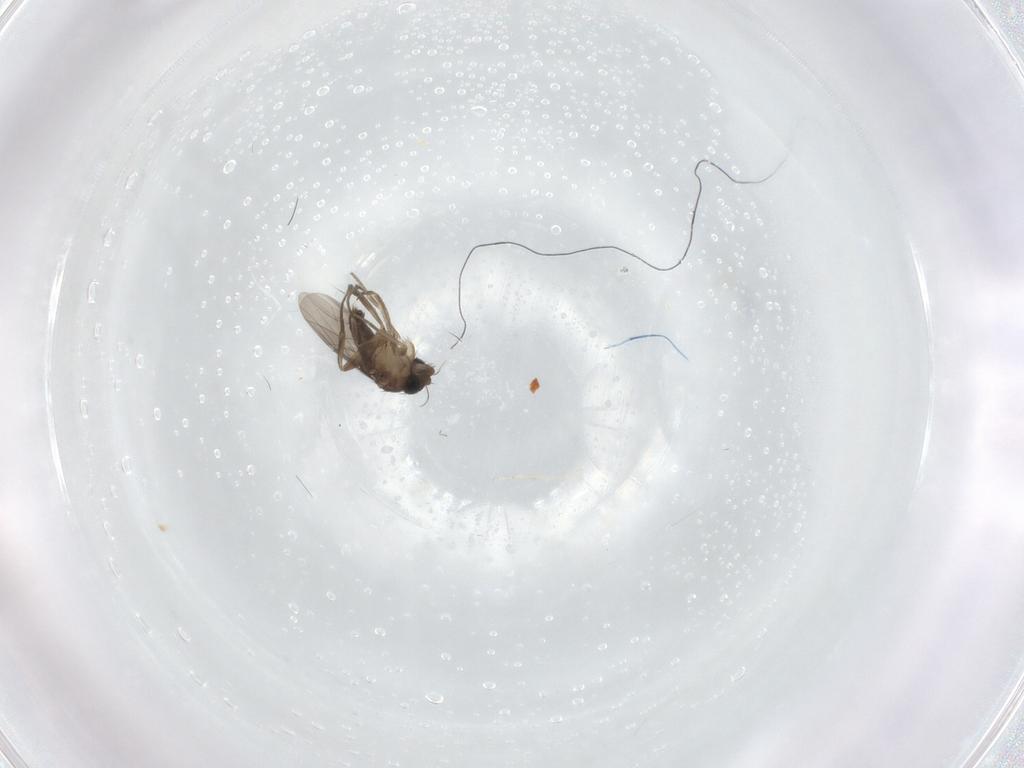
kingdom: Animalia
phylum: Arthropoda
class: Insecta
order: Diptera
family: Phoridae
